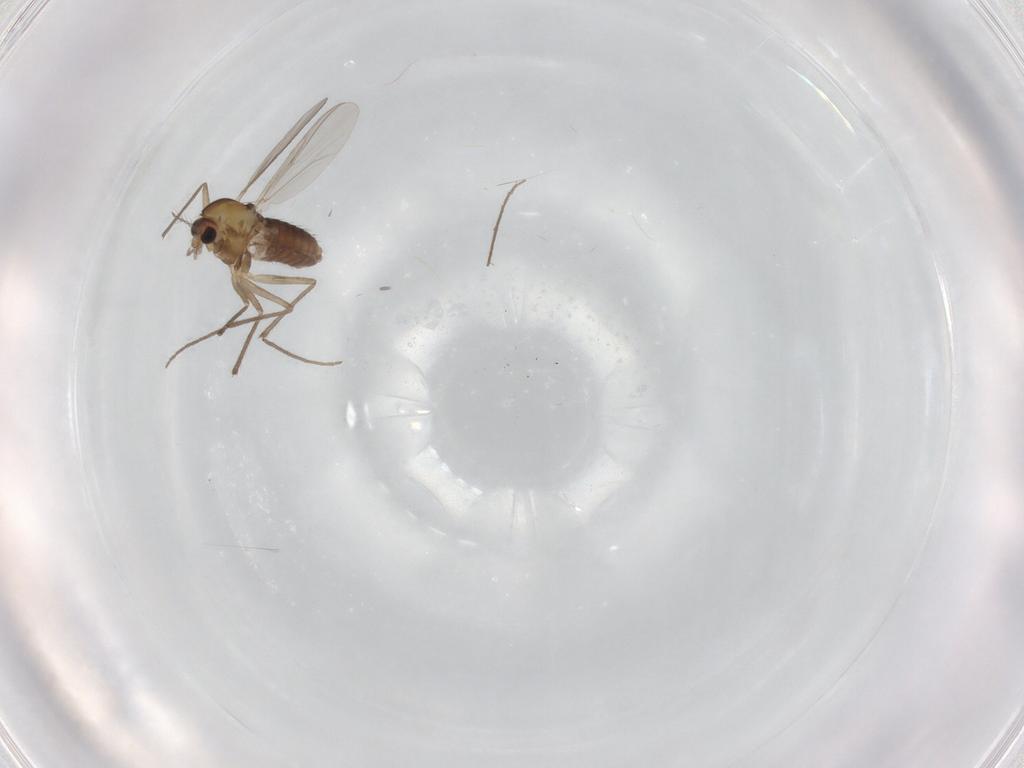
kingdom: Animalia
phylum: Arthropoda
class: Insecta
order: Diptera
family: Chironomidae
